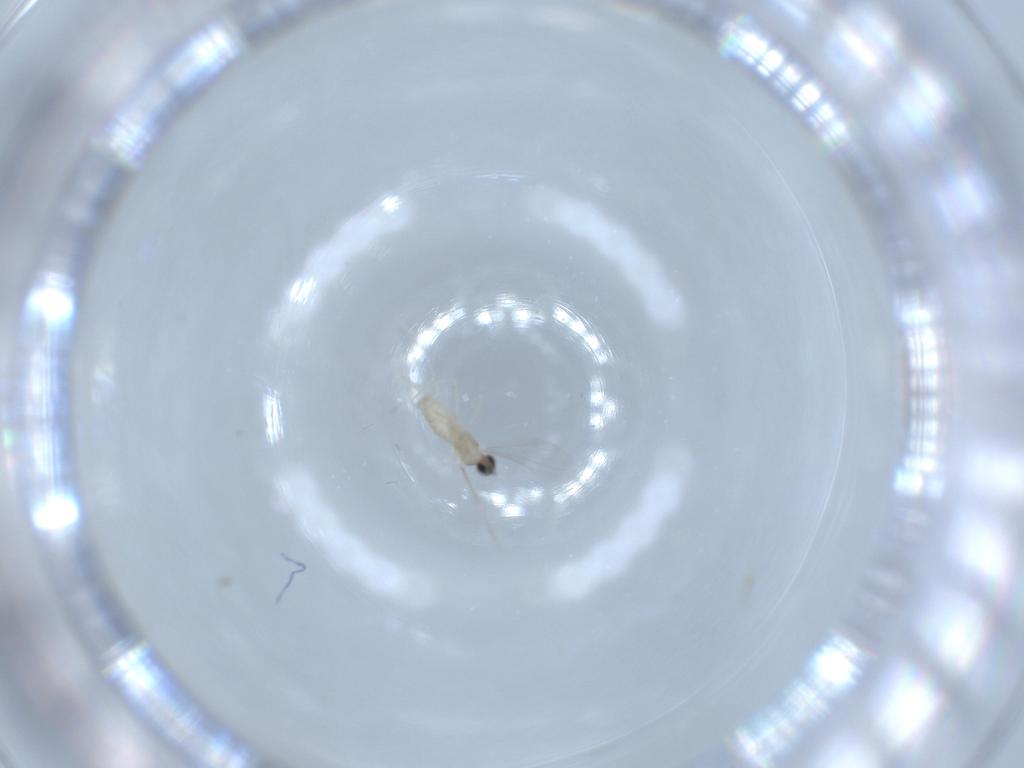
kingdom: Animalia
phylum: Arthropoda
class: Insecta
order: Diptera
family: Cecidomyiidae
